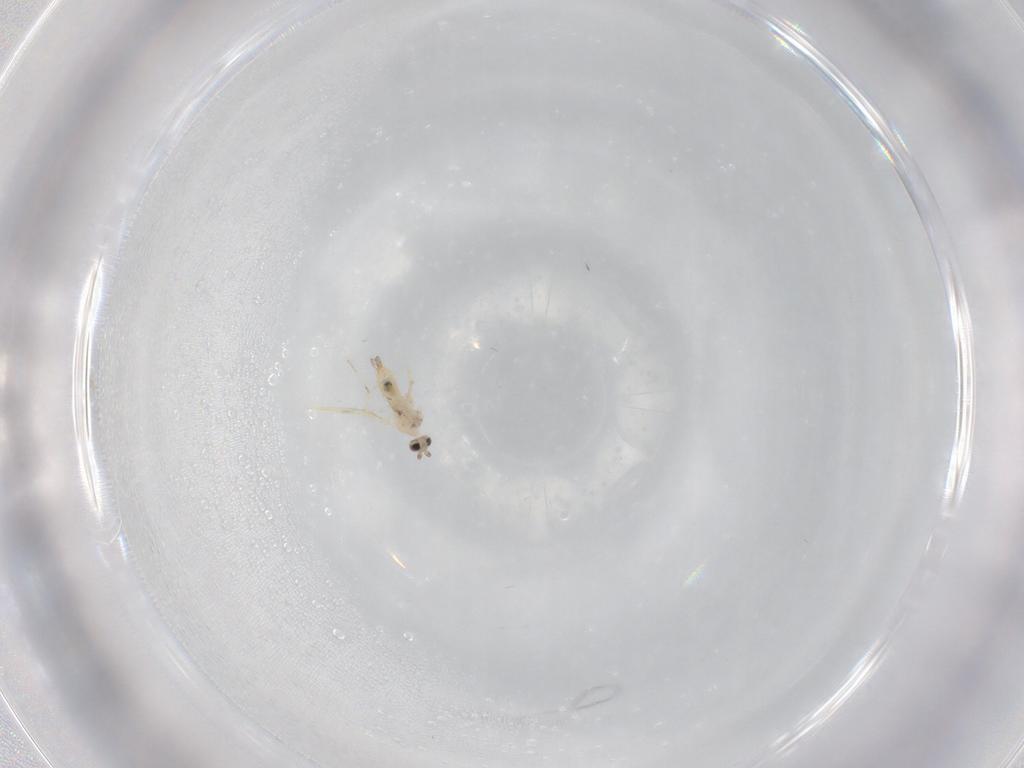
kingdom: Animalia
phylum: Arthropoda
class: Insecta
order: Diptera
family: Cecidomyiidae
